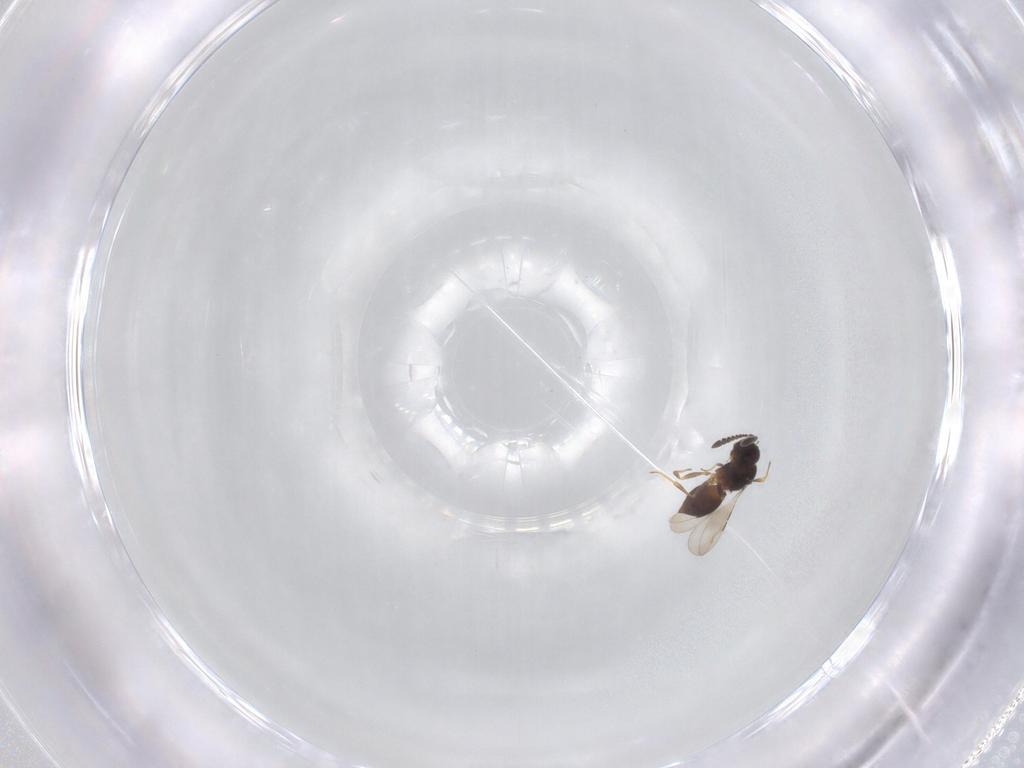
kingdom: Animalia
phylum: Arthropoda
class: Insecta
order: Hymenoptera
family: Ceraphronidae
